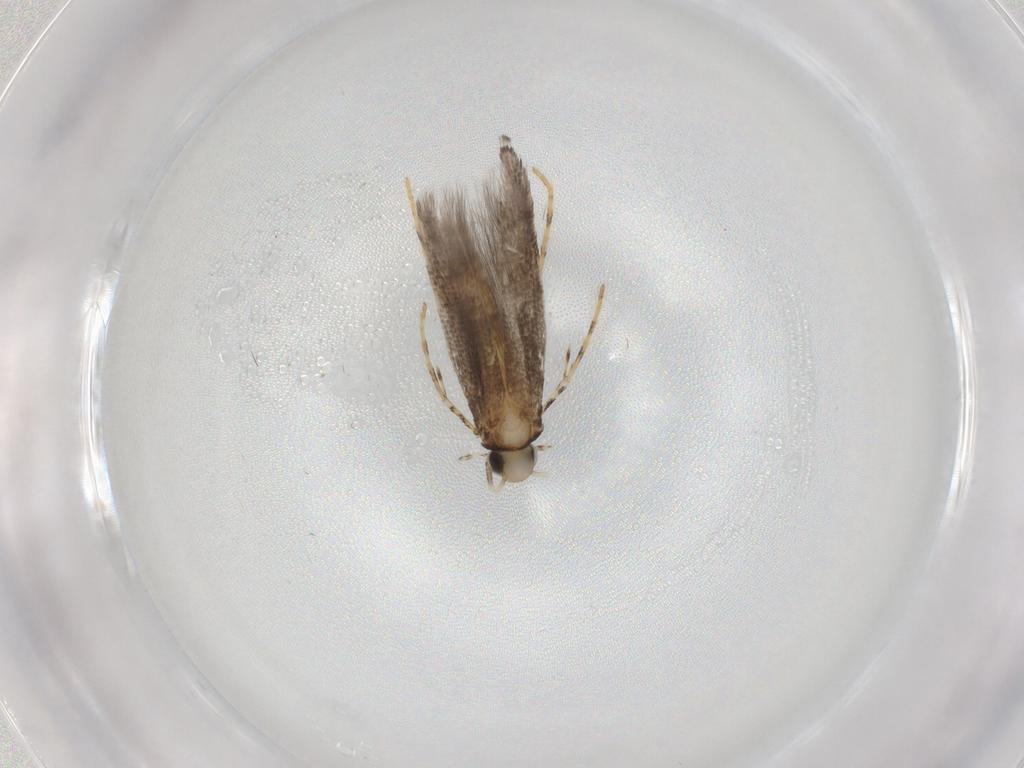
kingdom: Animalia
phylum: Arthropoda
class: Insecta
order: Lepidoptera
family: Gracillariidae
